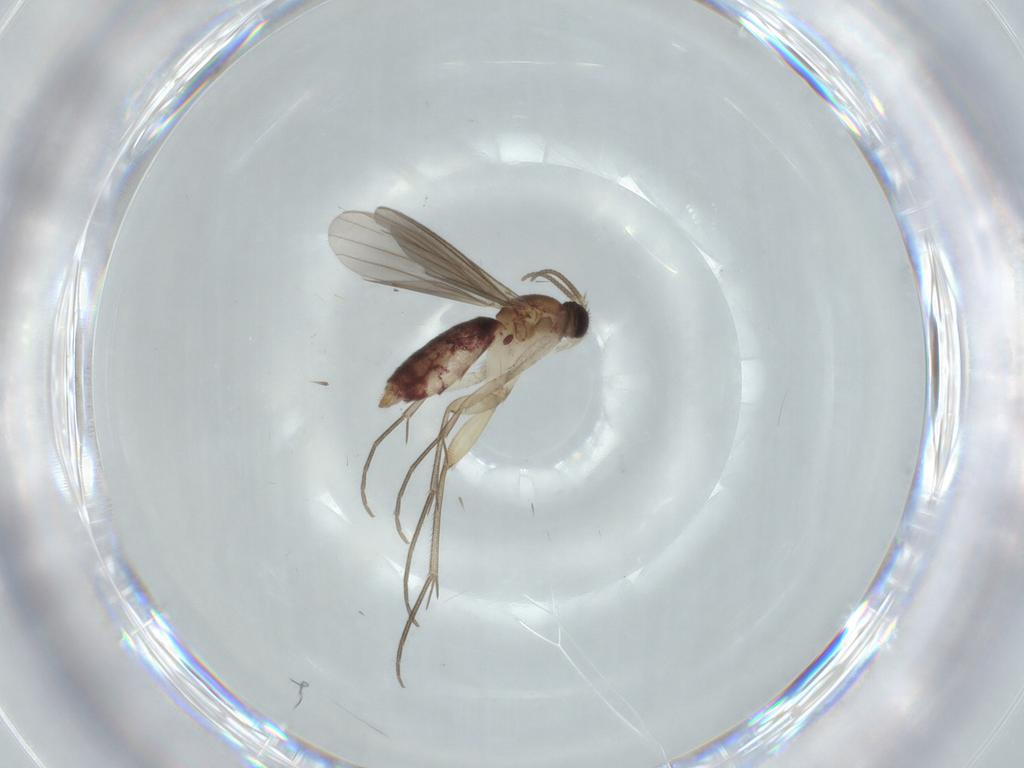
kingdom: Animalia
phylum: Arthropoda
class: Insecta
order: Diptera
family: Mycetophilidae
